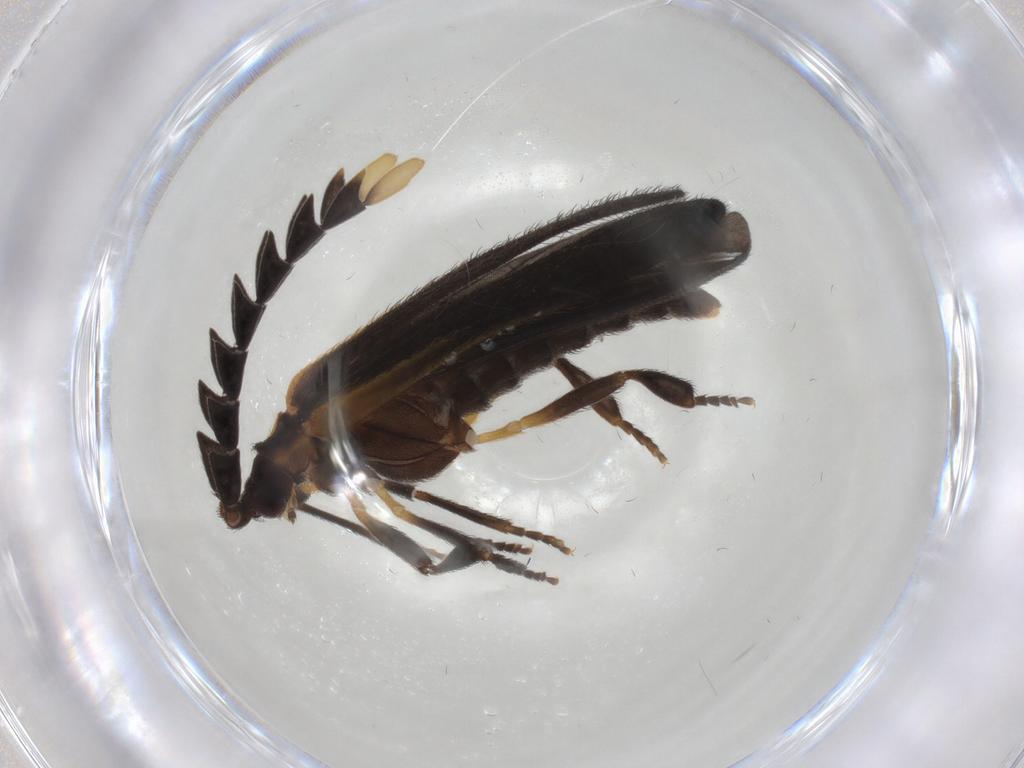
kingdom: Animalia
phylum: Arthropoda
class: Insecta
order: Coleoptera
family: Lycidae
